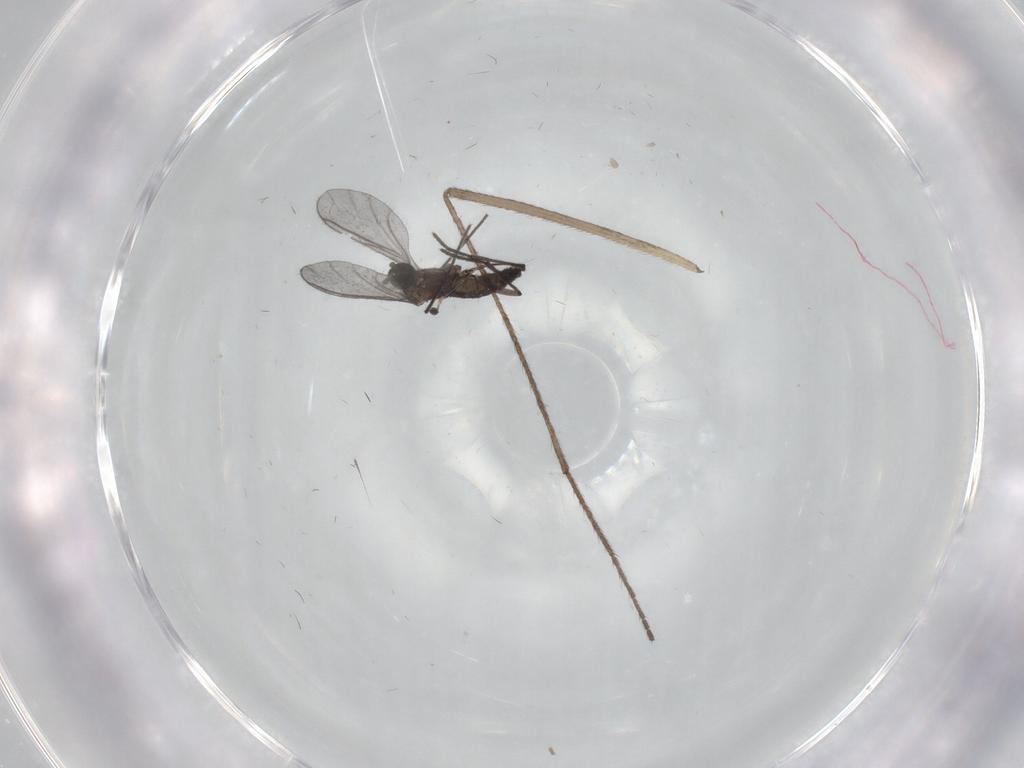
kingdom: Animalia
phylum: Arthropoda
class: Insecta
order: Diptera
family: Limoniidae
